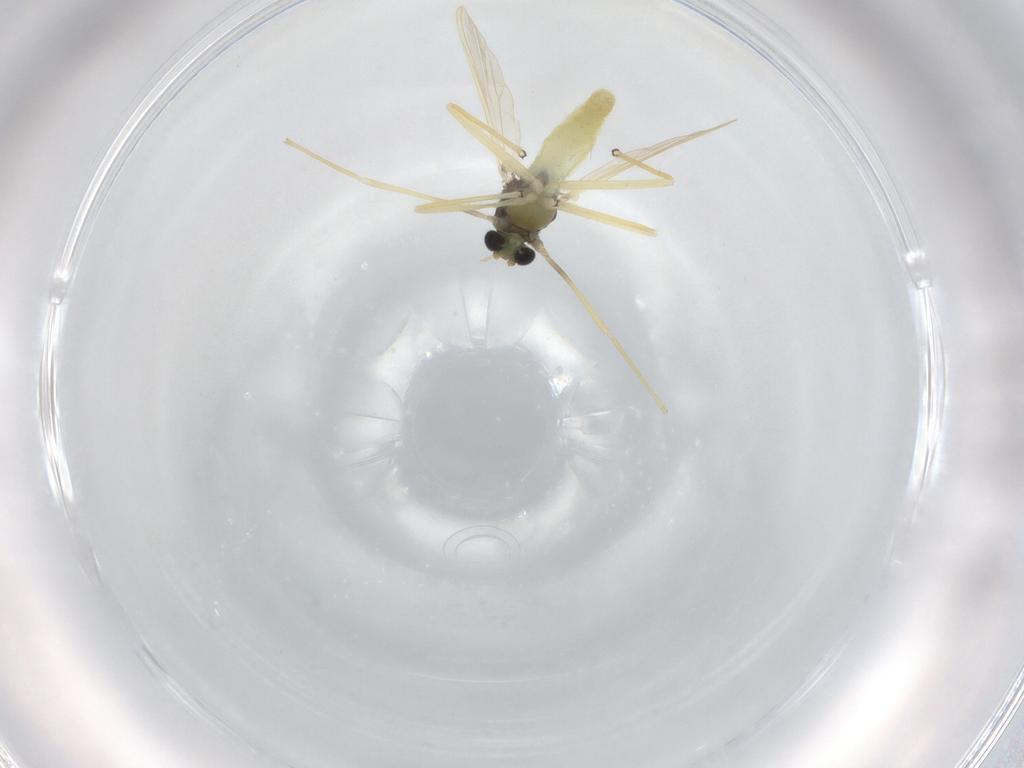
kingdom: Animalia
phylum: Arthropoda
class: Insecta
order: Diptera
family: Chironomidae
